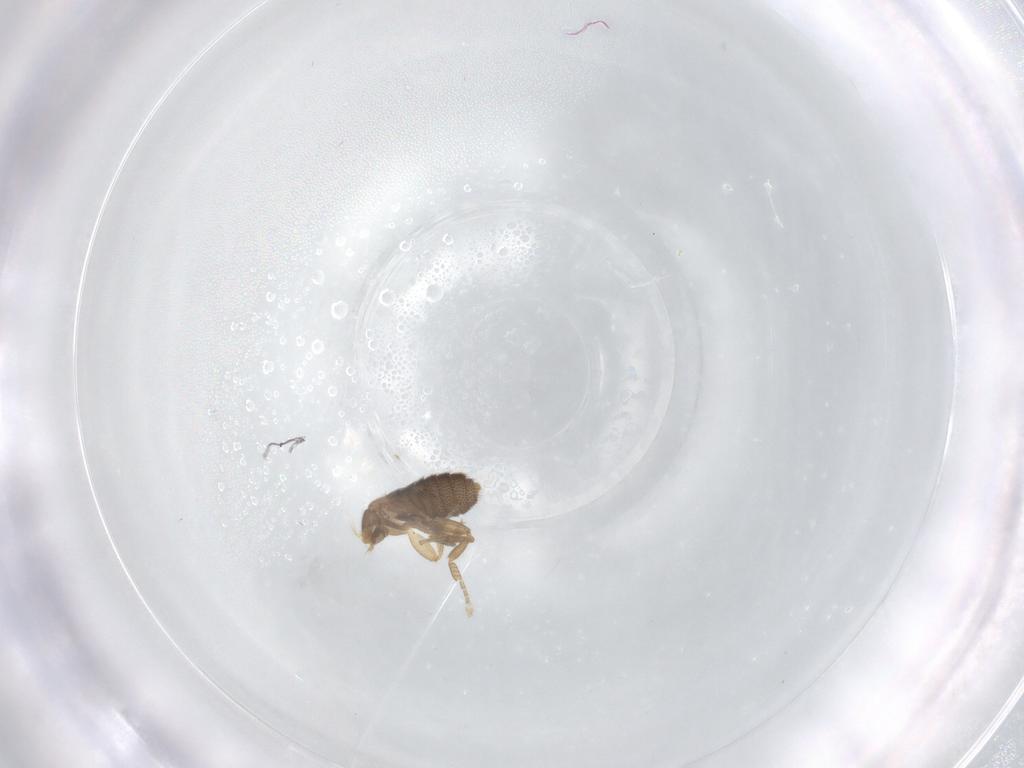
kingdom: Animalia
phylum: Arthropoda
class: Insecta
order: Diptera
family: Phoridae
